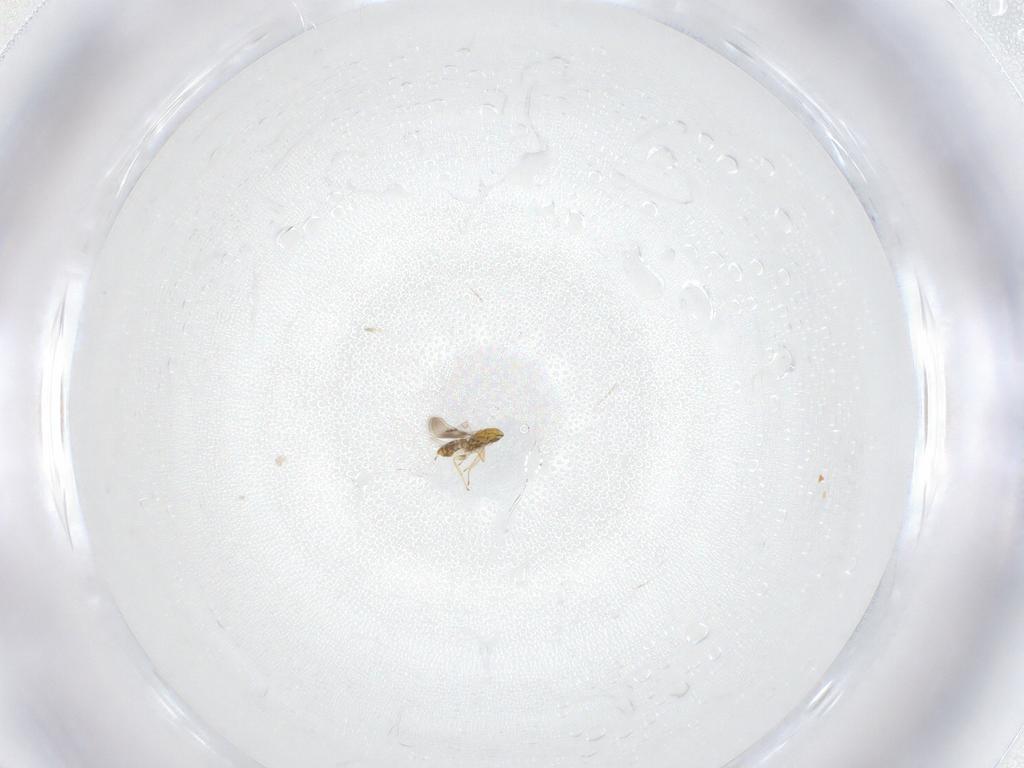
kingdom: Animalia
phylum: Arthropoda
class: Insecta
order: Hymenoptera
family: Eulophidae
